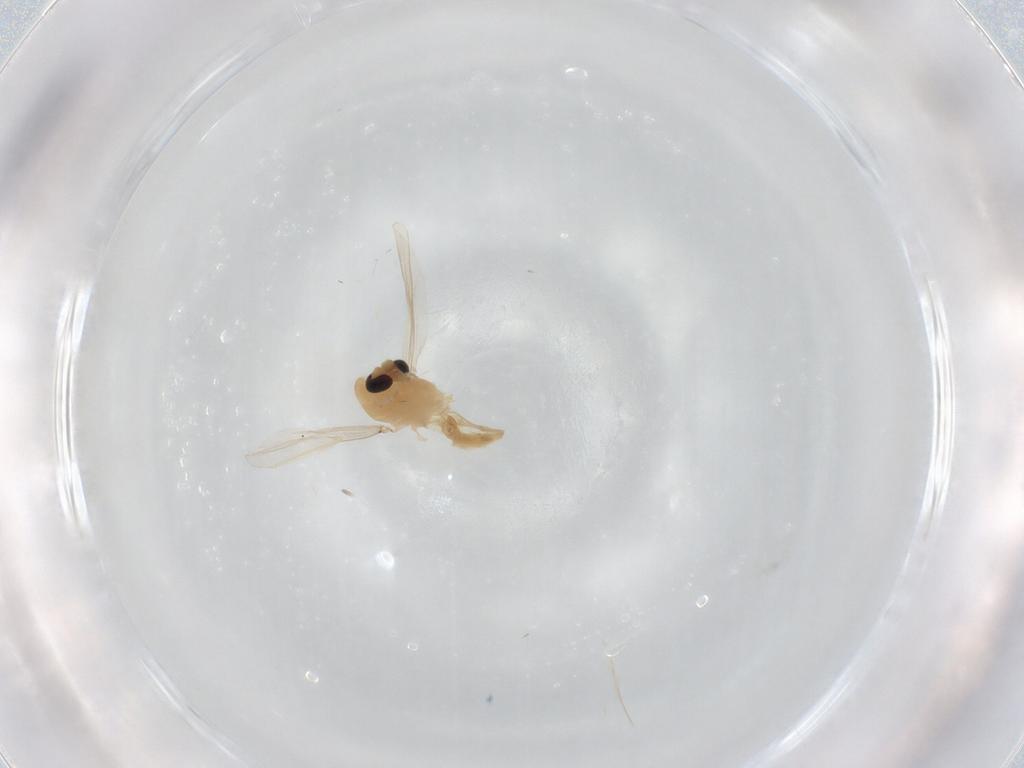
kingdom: Animalia
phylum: Arthropoda
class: Insecta
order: Diptera
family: Chironomidae
